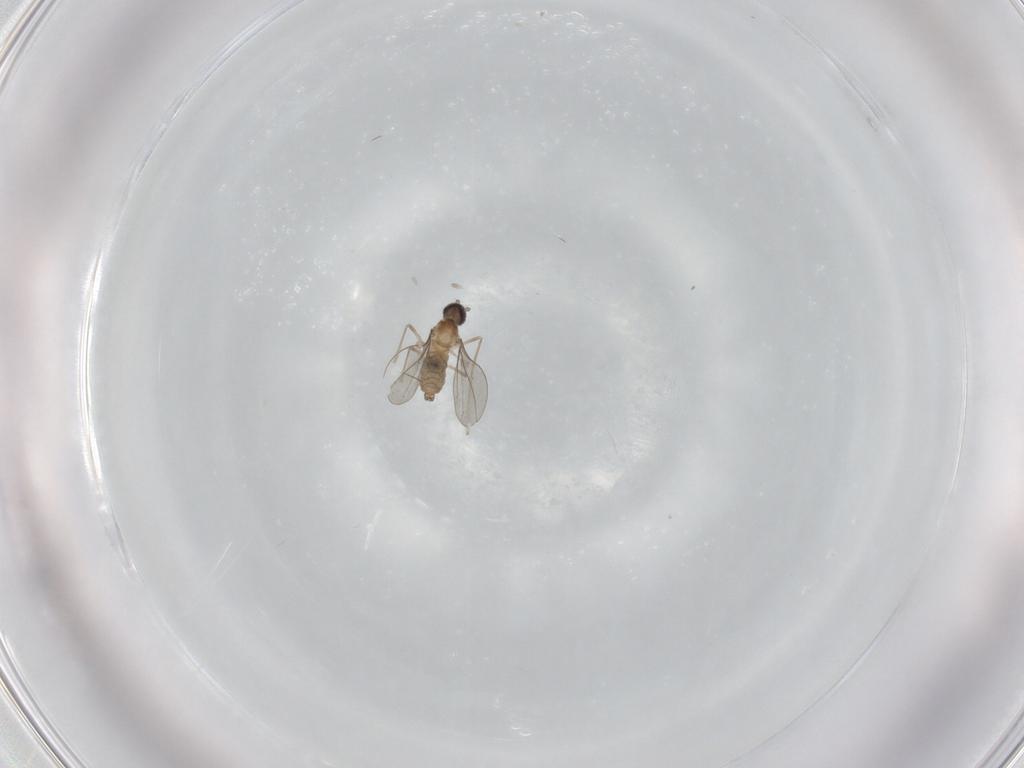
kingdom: Animalia
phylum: Arthropoda
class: Insecta
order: Diptera
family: Cecidomyiidae
